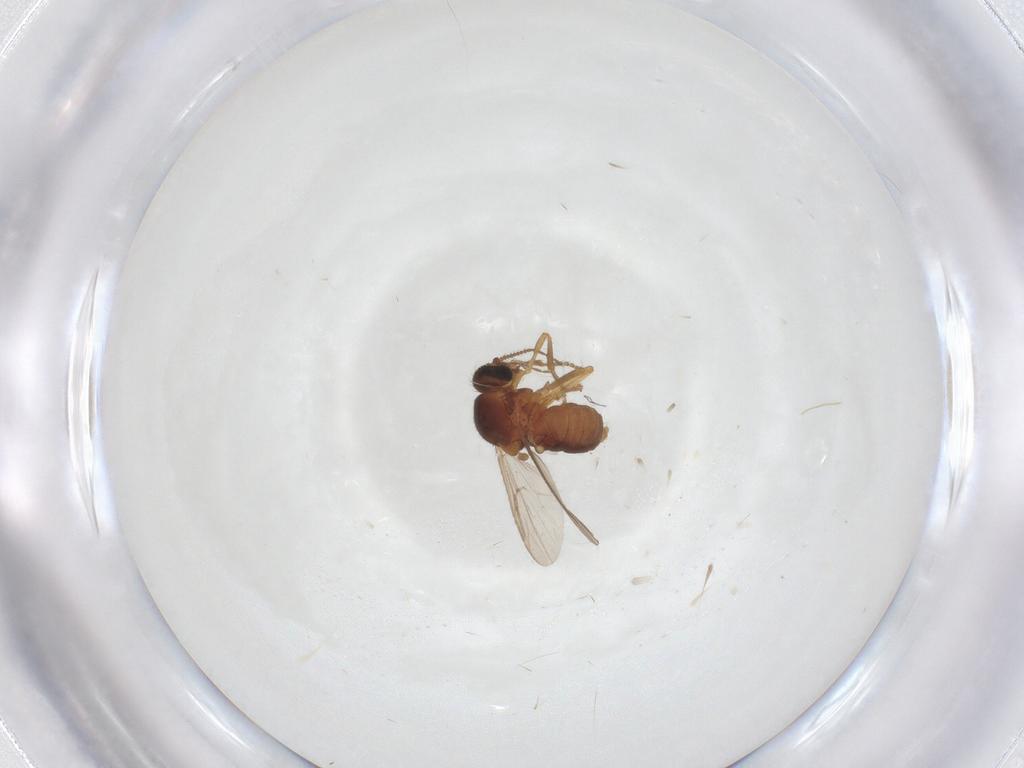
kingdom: Animalia
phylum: Arthropoda
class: Insecta
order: Diptera
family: Ceratopogonidae
